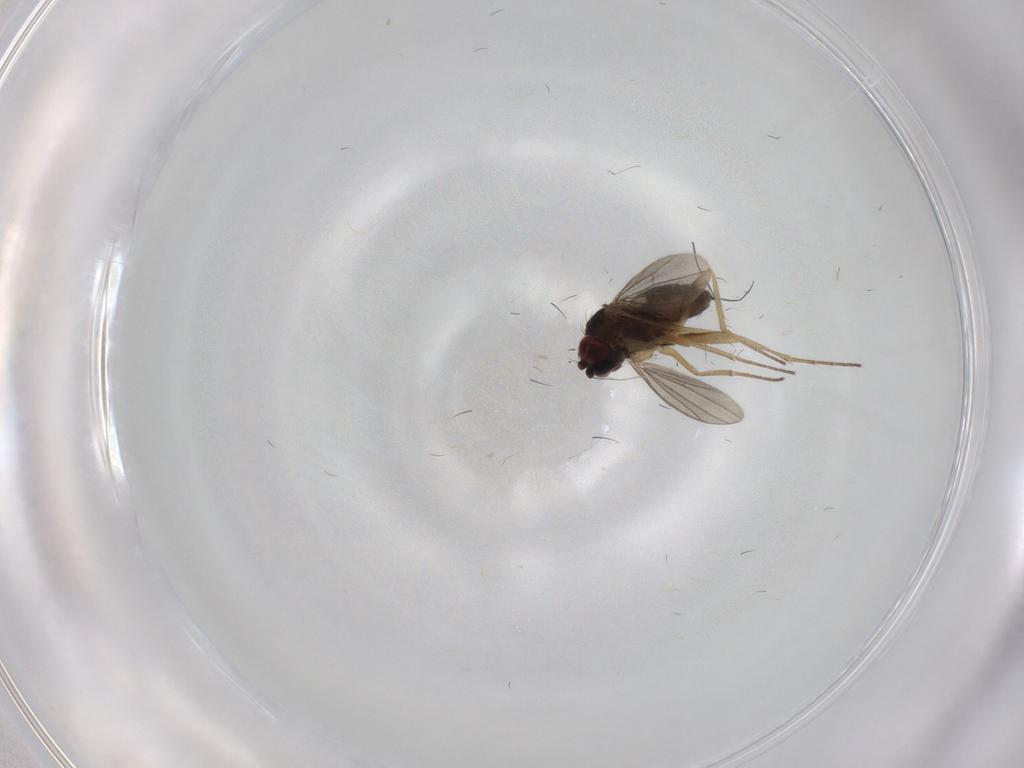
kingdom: Animalia
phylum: Arthropoda
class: Insecta
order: Diptera
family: Dolichopodidae
